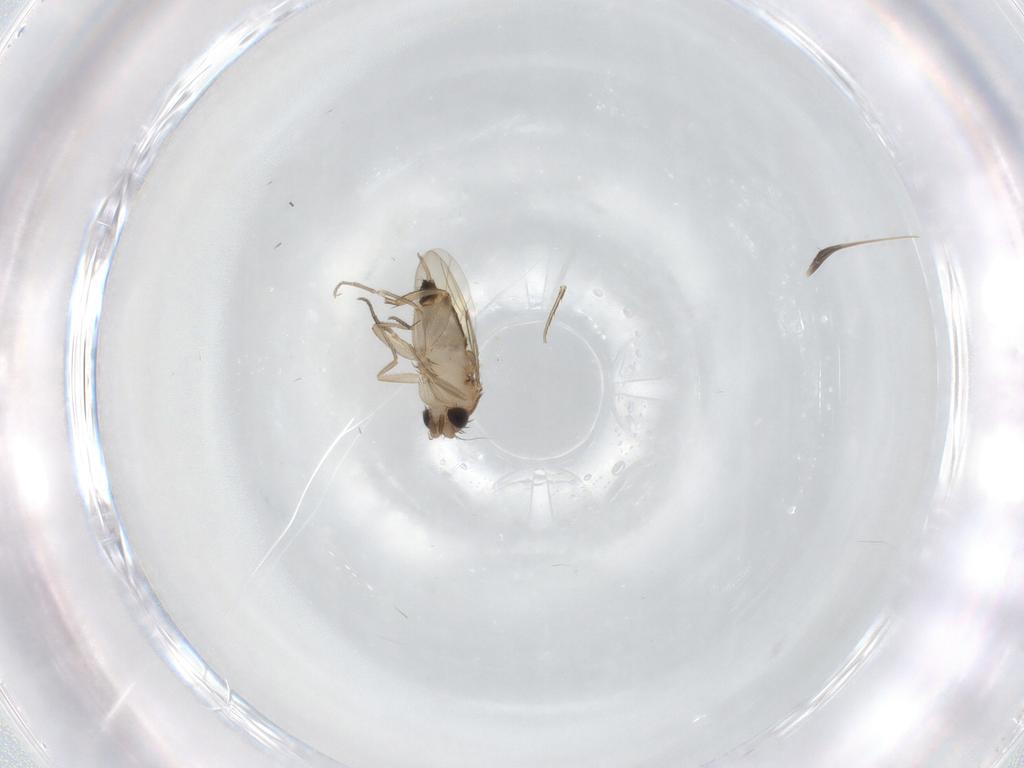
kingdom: Animalia
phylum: Arthropoda
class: Insecta
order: Diptera
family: Phoridae
